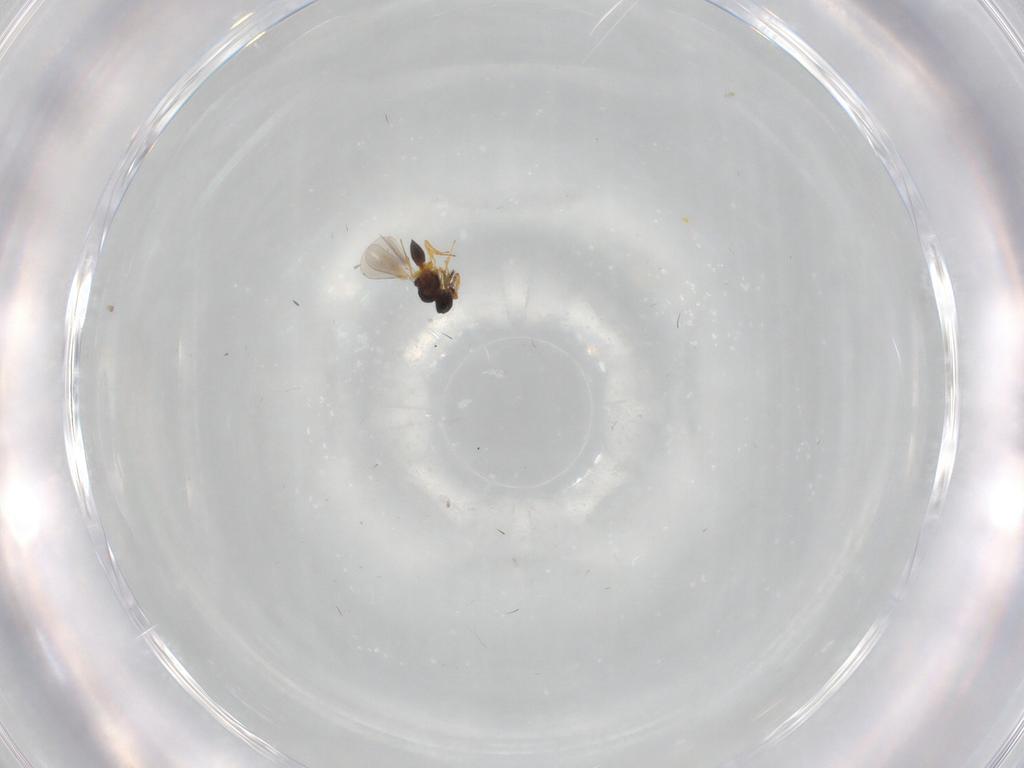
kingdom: Animalia
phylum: Arthropoda
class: Insecta
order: Hymenoptera
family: Platygastridae
